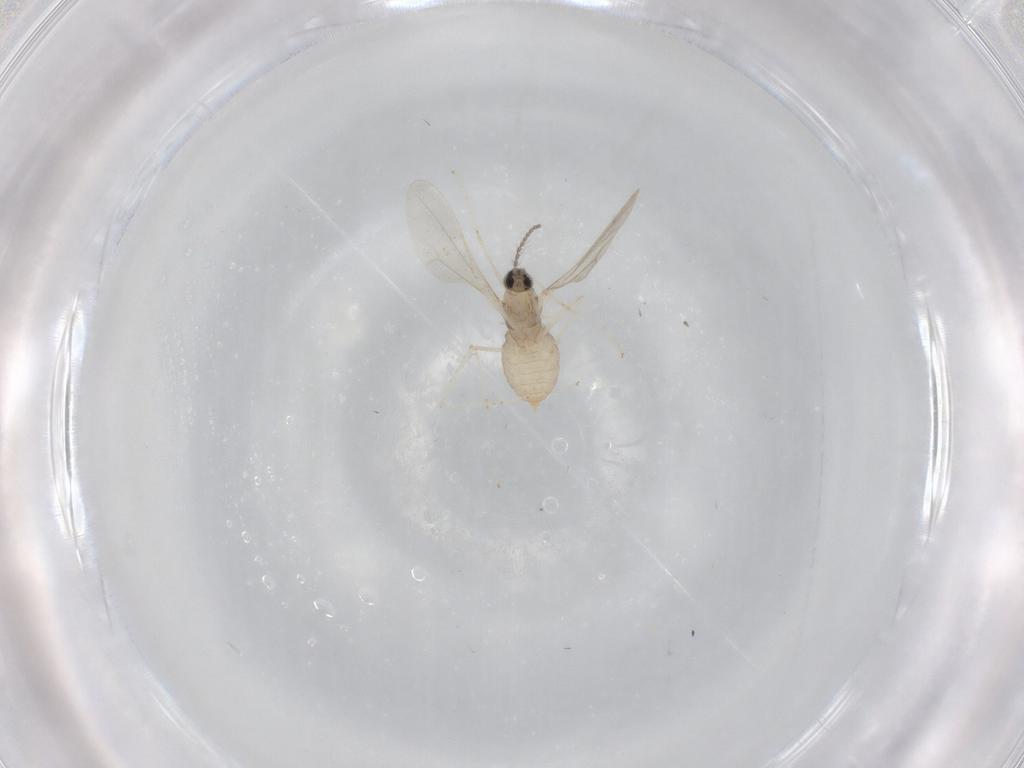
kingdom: Animalia
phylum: Arthropoda
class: Insecta
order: Diptera
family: Cecidomyiidae
